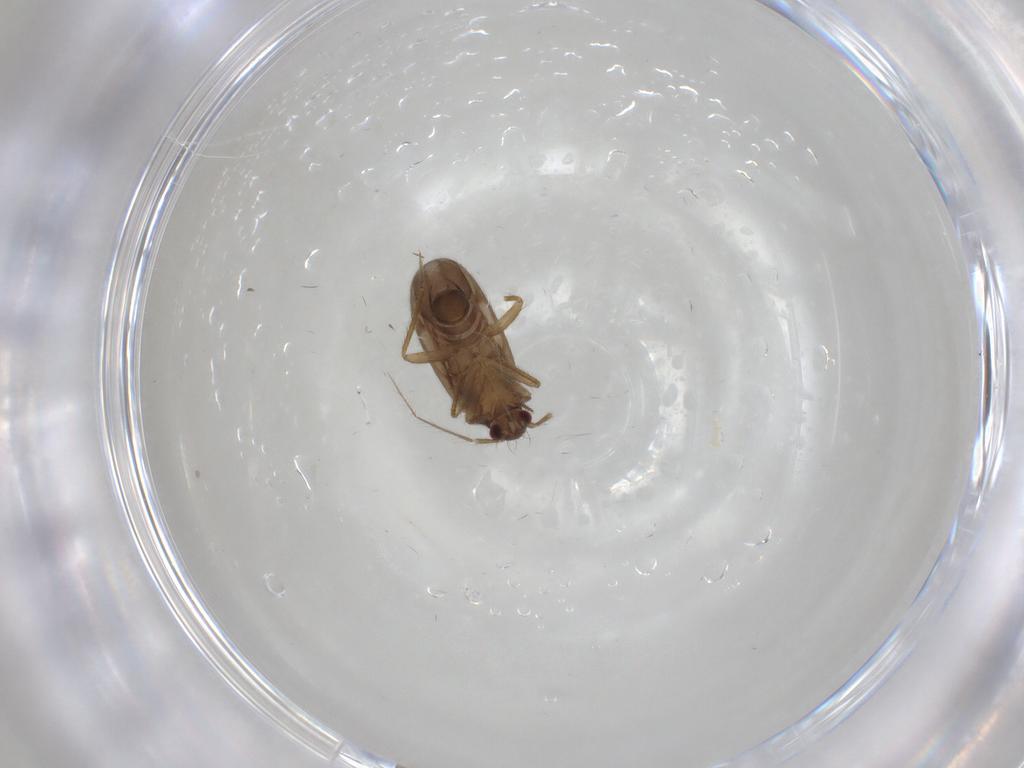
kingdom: Animalia
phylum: Arthropoda
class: Insecta
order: Hemiptera
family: Ceratocombidae
